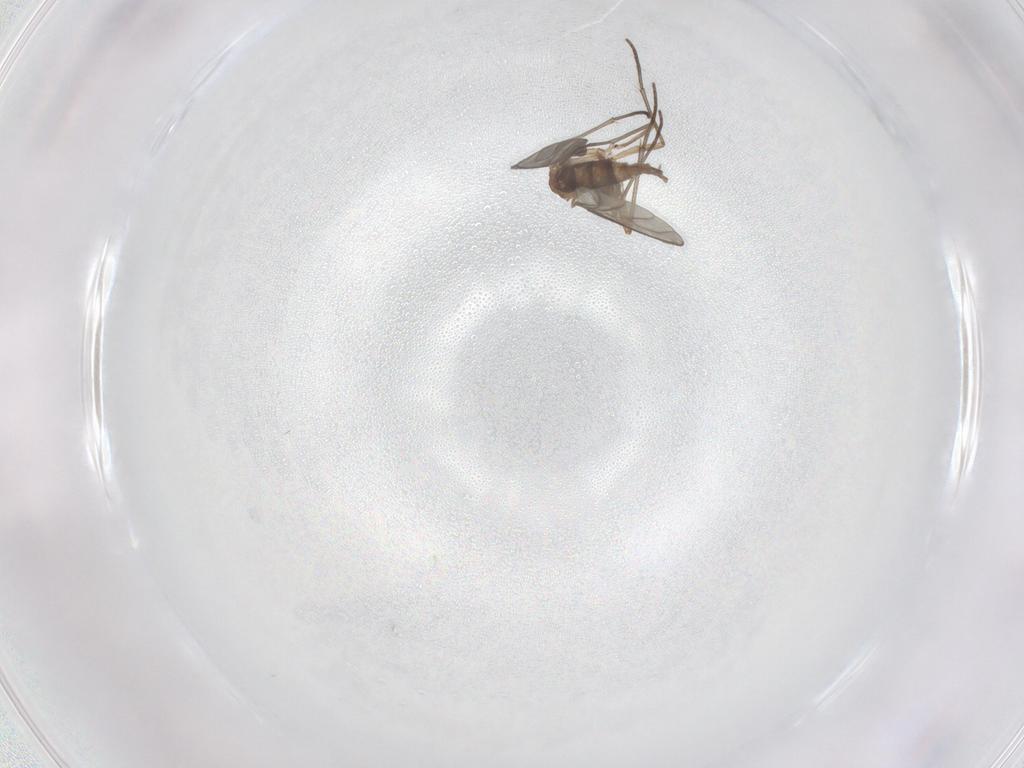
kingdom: Animalia
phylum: Arthropoda
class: Insecta
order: Diptera
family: Sciaridae
